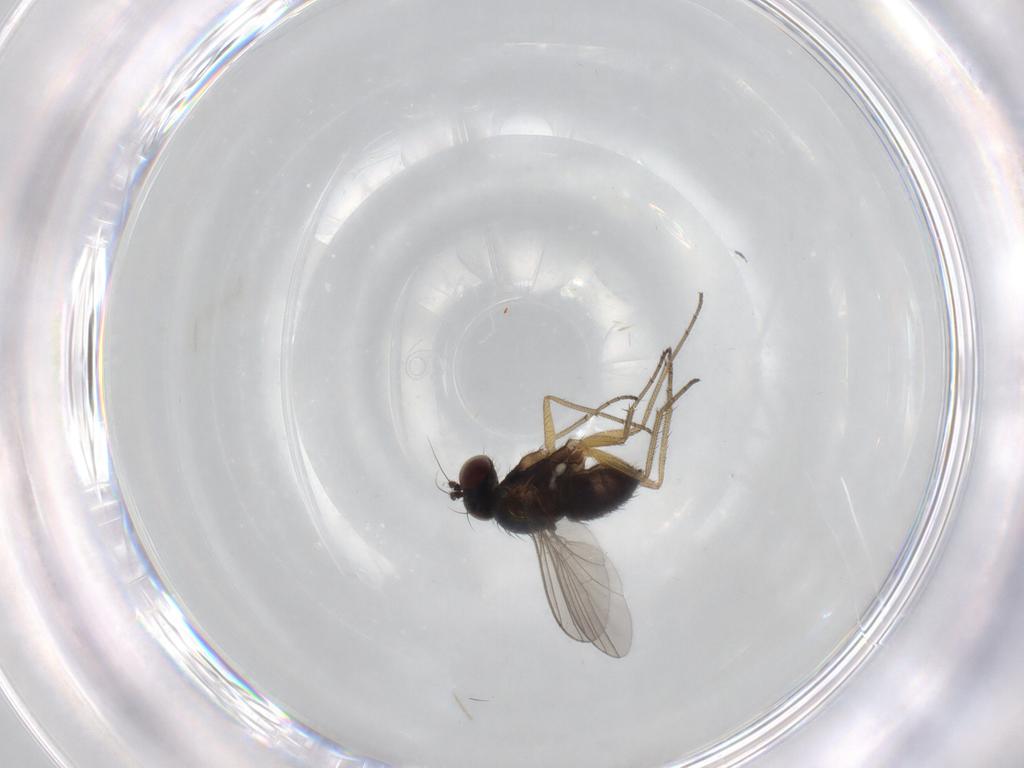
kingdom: Animalia
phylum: Arthropoda
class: Insecta
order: Diptera
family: Dolichopodidae
